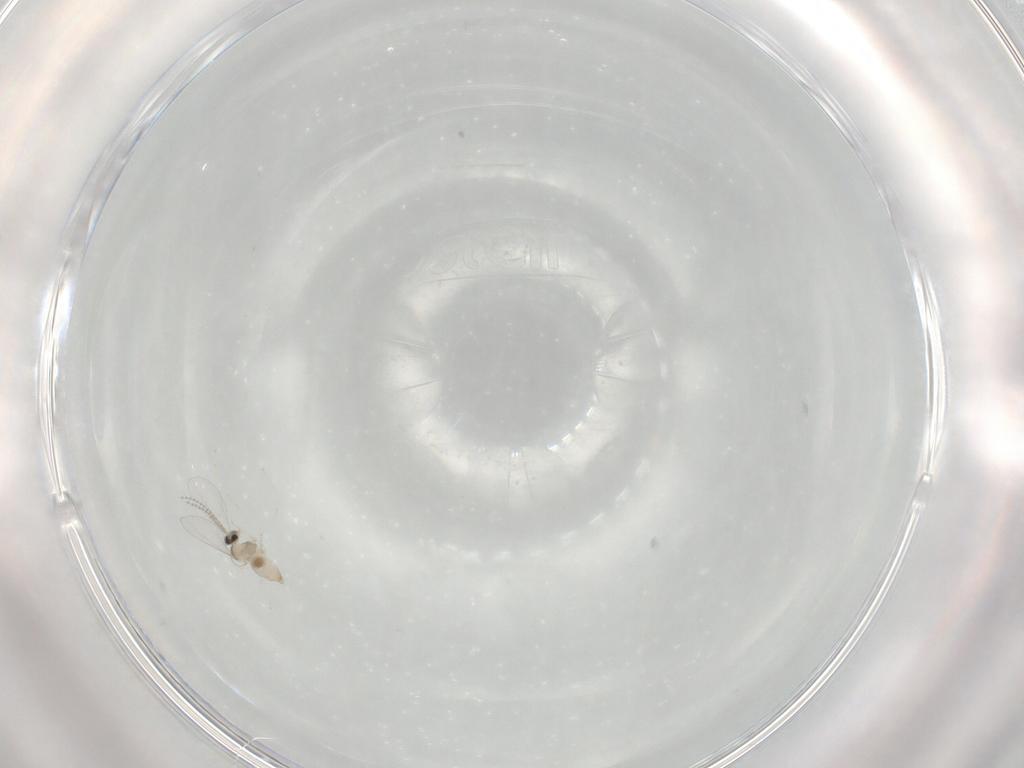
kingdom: Animalia
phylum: Arthropoda
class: Insecta
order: Diptera
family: Cecidomyiidae
